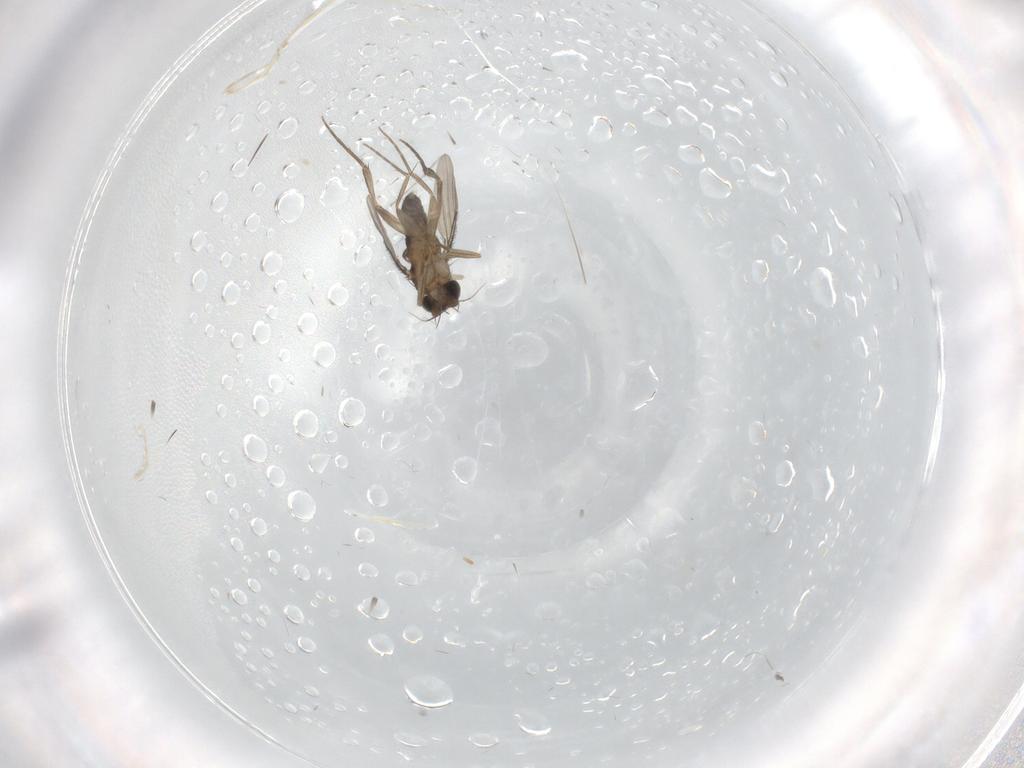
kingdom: Animalia
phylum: Arthropoda
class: Insecta
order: Diptera
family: Phoridae
